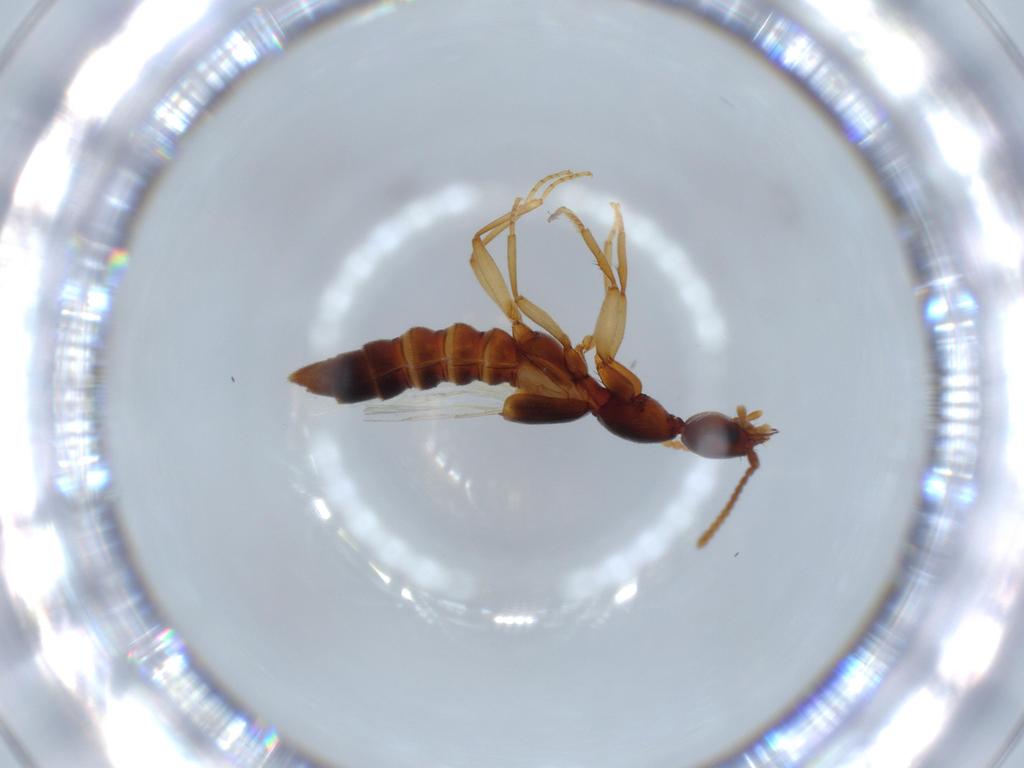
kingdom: Animalia
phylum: Arthropoda
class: Insecta
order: Coleoptera
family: Staphylinidae
